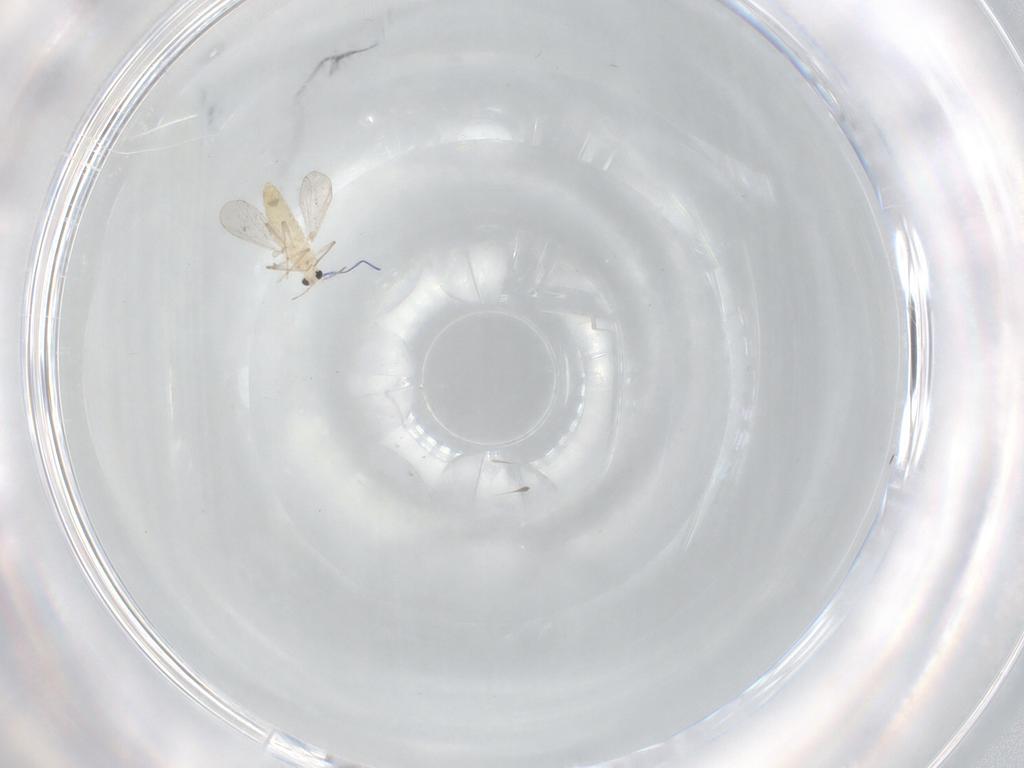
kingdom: Animalia
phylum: Arthropoda
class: Insecta
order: Diptera
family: Chironomidae
